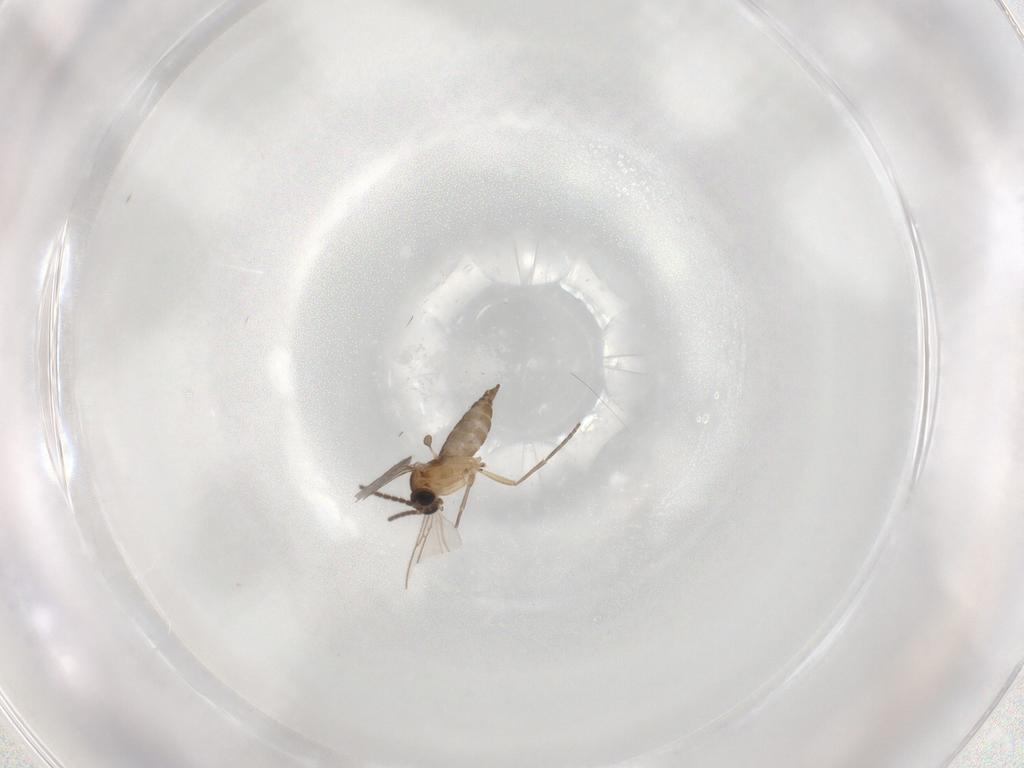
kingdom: Animalia
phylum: Arthropoda
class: Insecta
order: Diptera
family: Sciaridae
